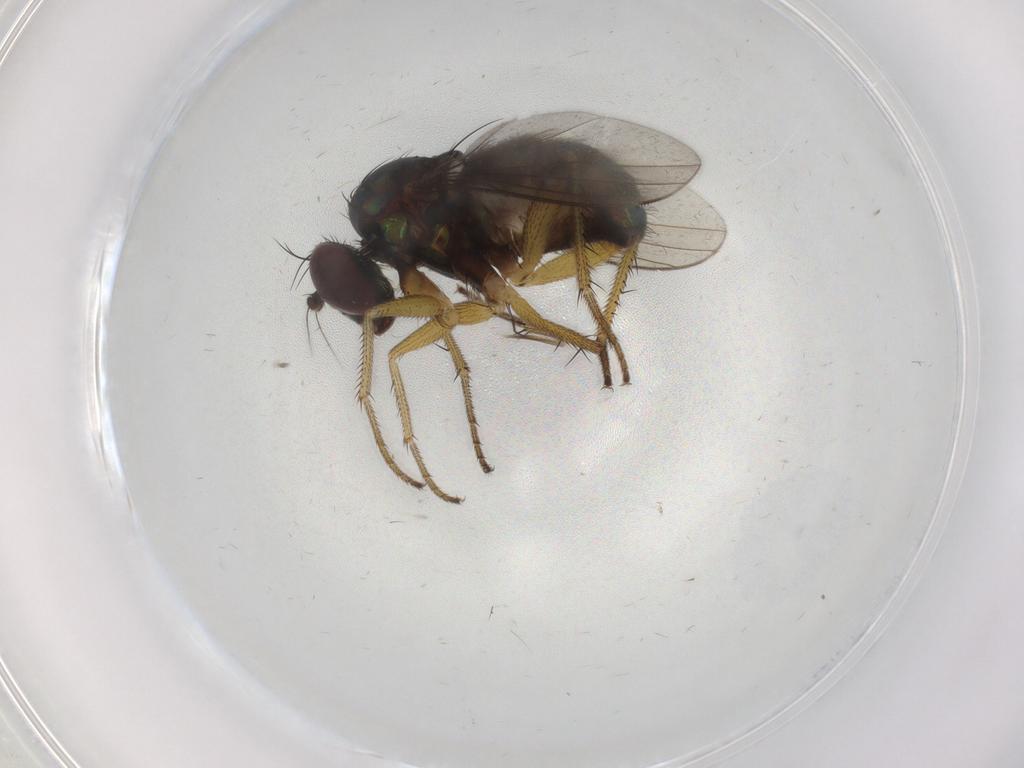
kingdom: Animalia
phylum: Arthropoda
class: Insecta
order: Diptera
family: Dolichopodidae
